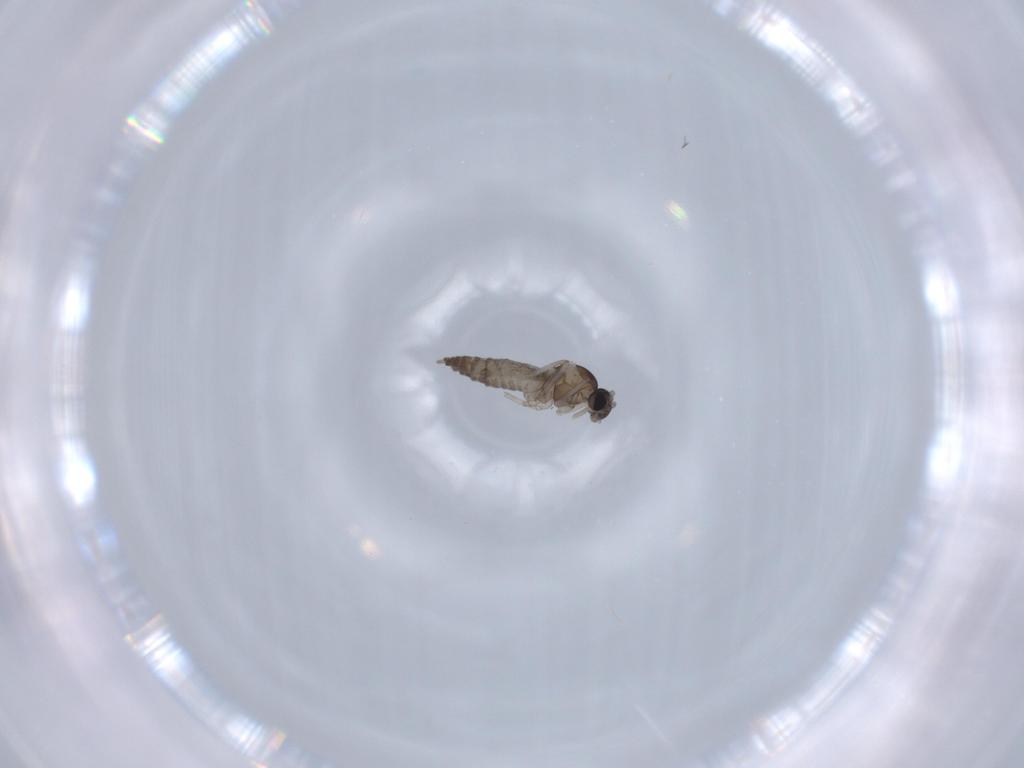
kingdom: Animalia
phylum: Arthropoda
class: Insecta
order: Diptera
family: Cecidomyiidae
